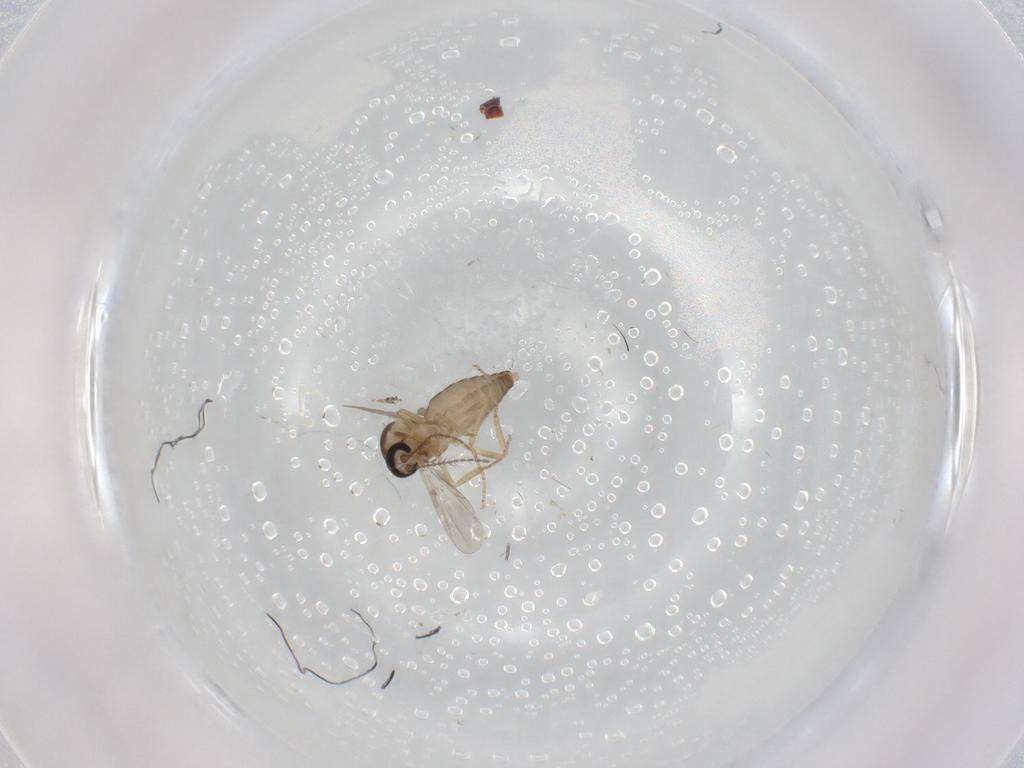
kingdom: Animalia
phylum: Arthropoda
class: Insecta
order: Diptera
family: Ceratopogonidae
